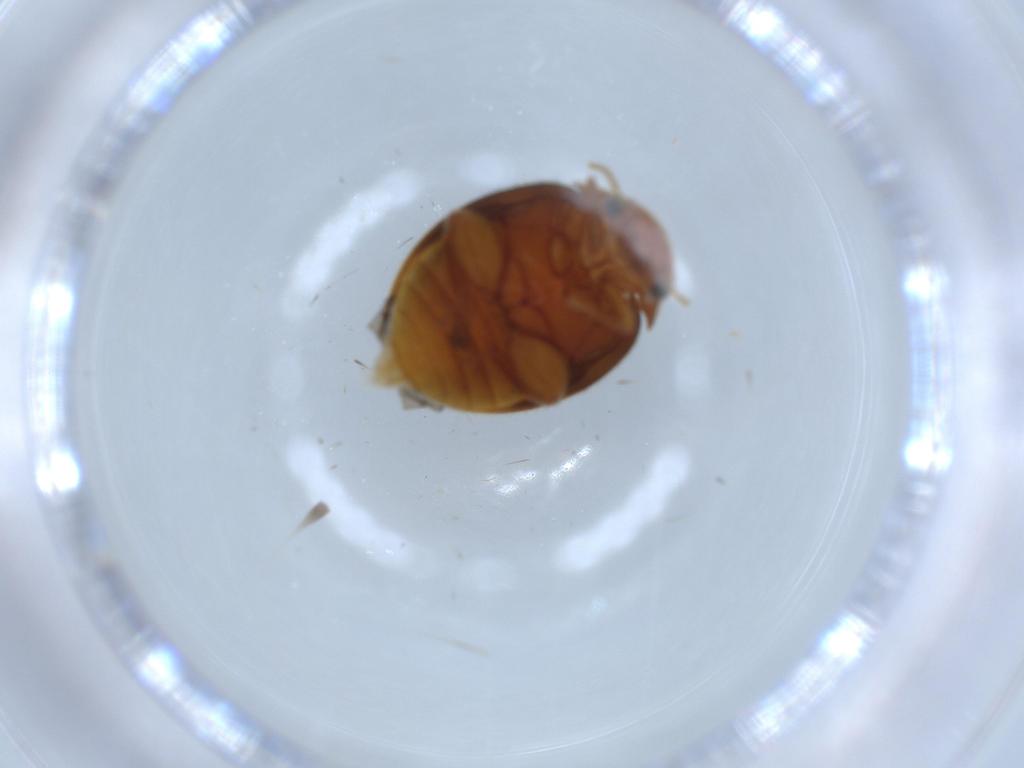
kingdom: Animalia
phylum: Arthropoda
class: Insecta
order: Coleoptera
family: Scirtidae
